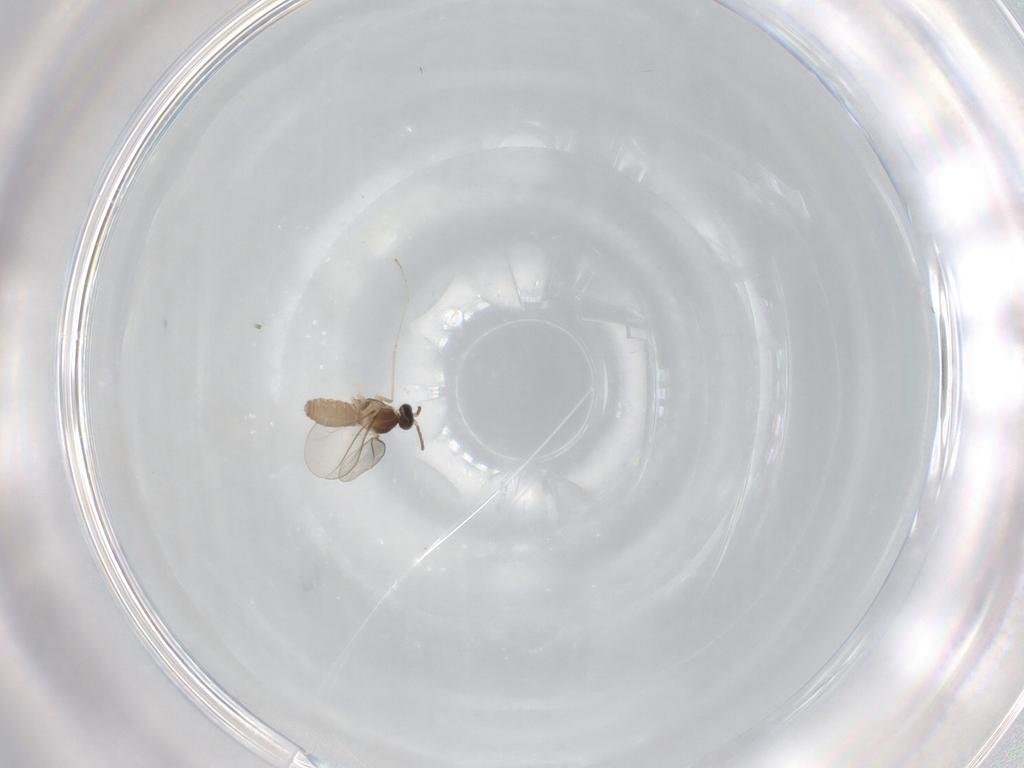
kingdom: Animalia
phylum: Arthropoda
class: Insecta
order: Diptera
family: Cecidomyiidae
